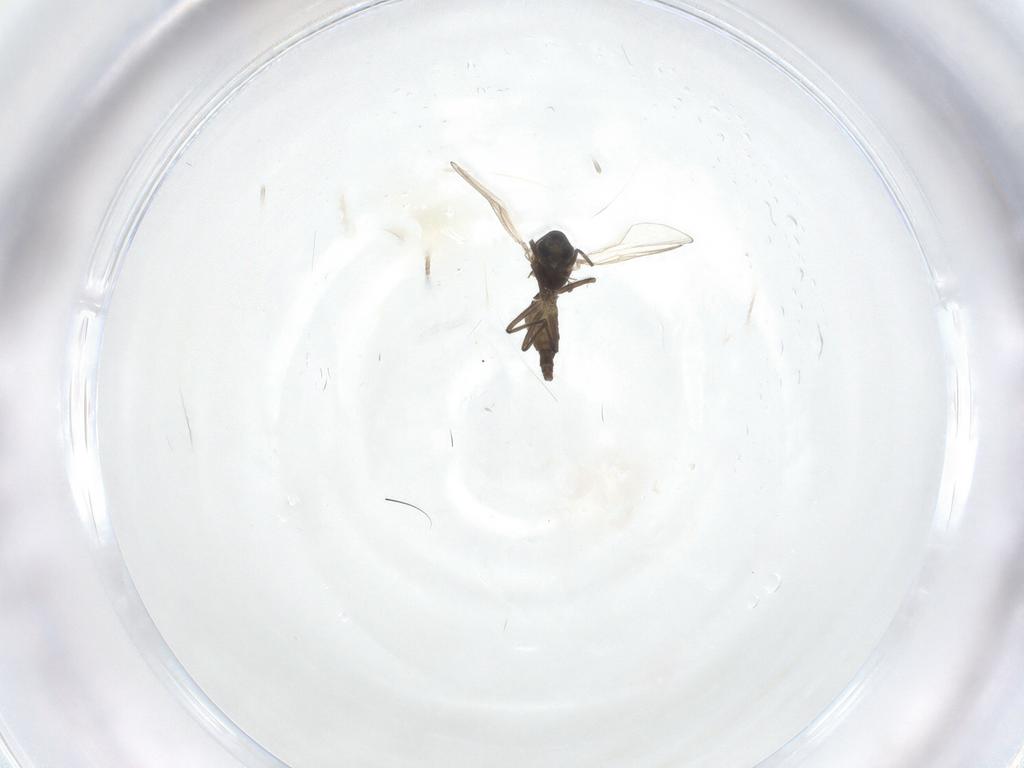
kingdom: Animalia
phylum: Arthropoda
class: Insecta
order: Diptera
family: Chironomidae
